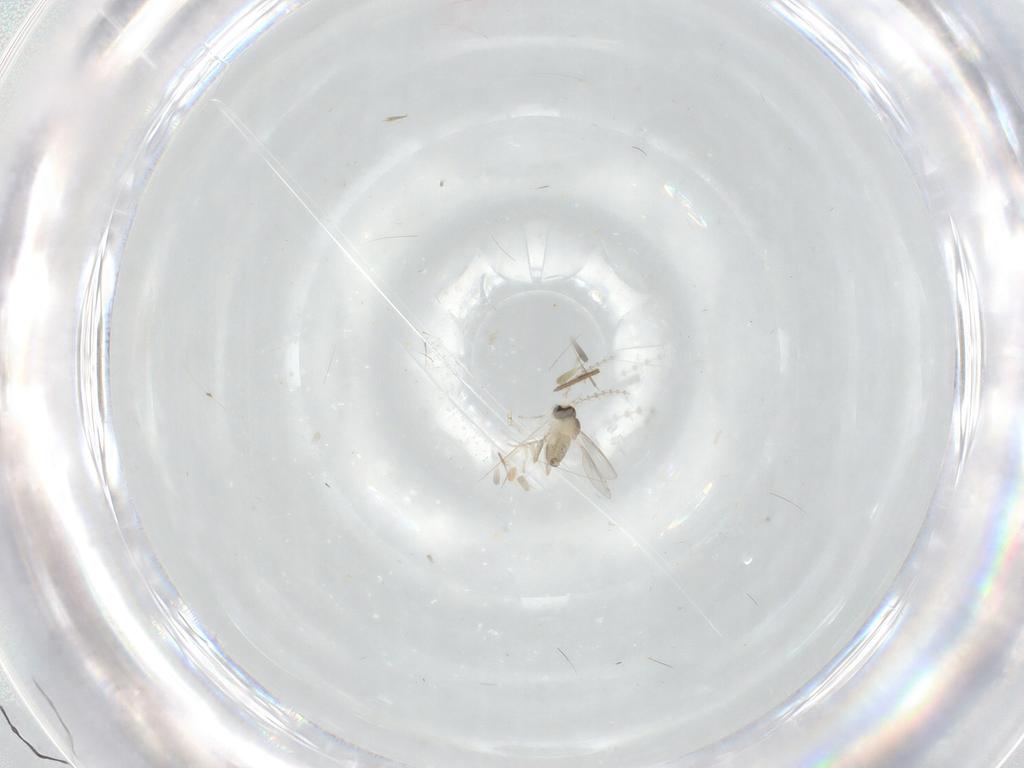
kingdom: Animalia
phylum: Arthropoda
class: Insecta
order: Diptera
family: Cecidomyiidae
